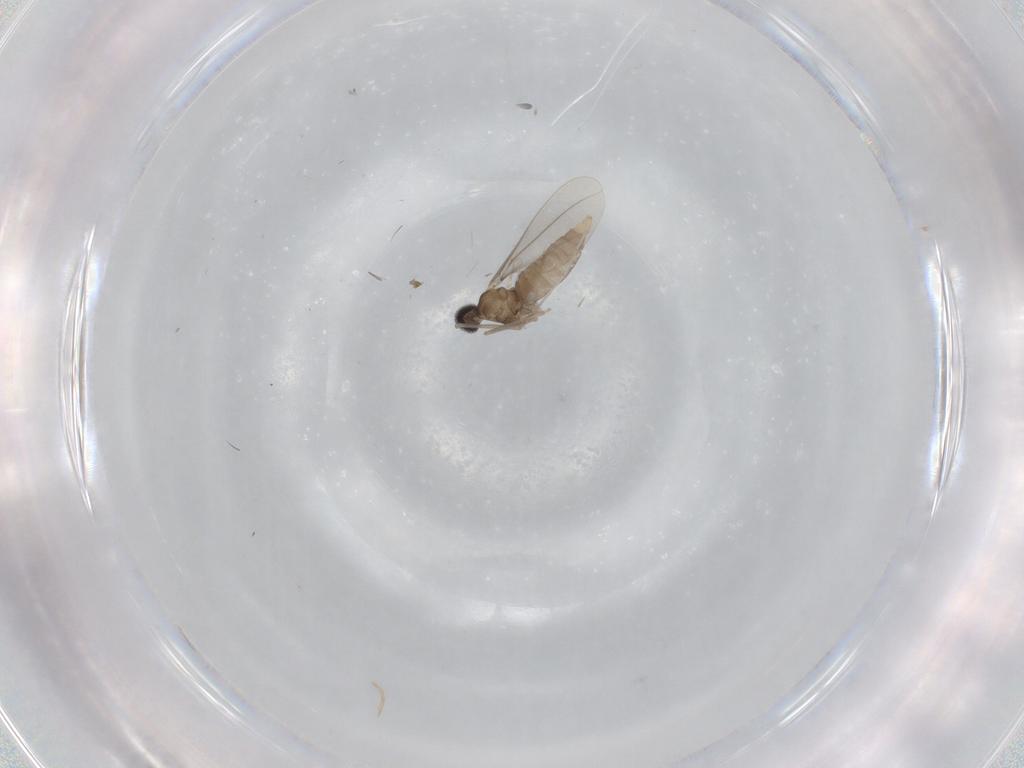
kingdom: Animalia
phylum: Arthropoda
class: Insecta
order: Diptera
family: Cecidomyiidae
